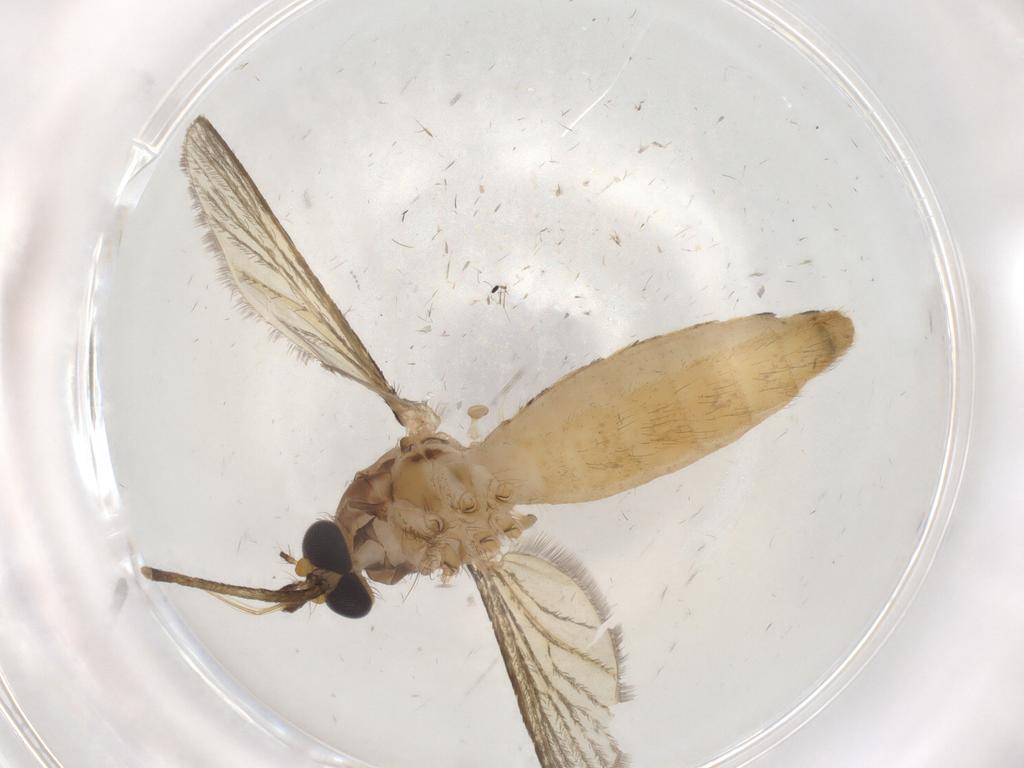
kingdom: Animalia
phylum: Arthropoda
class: Insecta
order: Diptera
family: Culicidae
